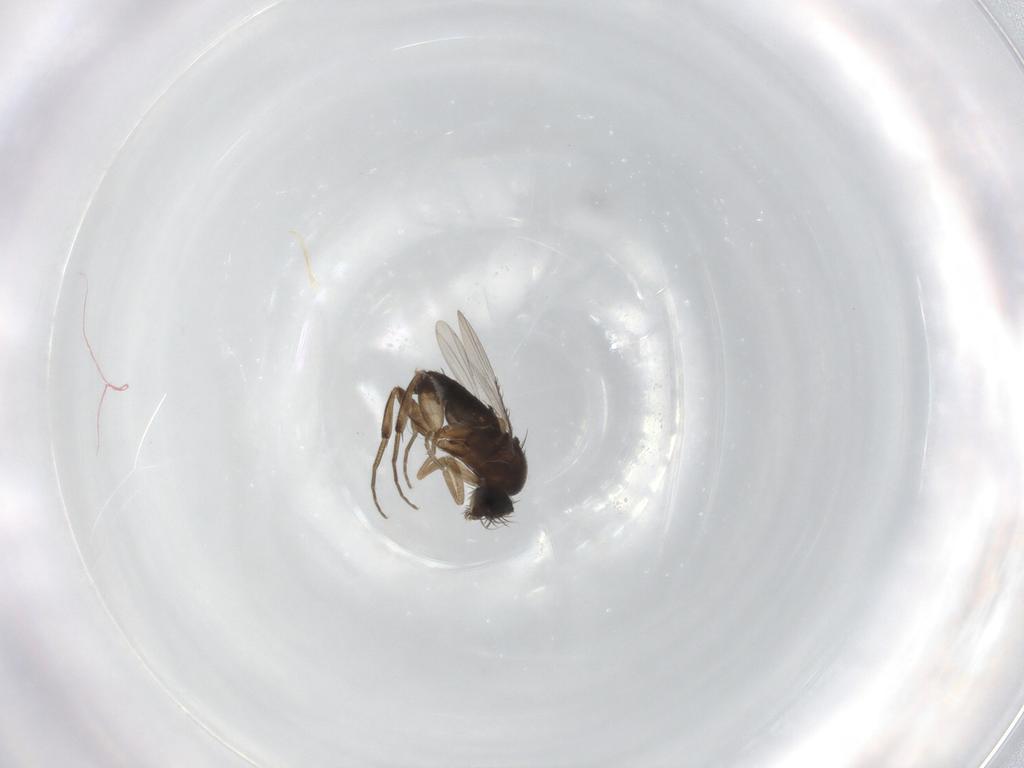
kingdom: Animalia
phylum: Arthropoda
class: Insecta
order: Diptera
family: Phoridae
